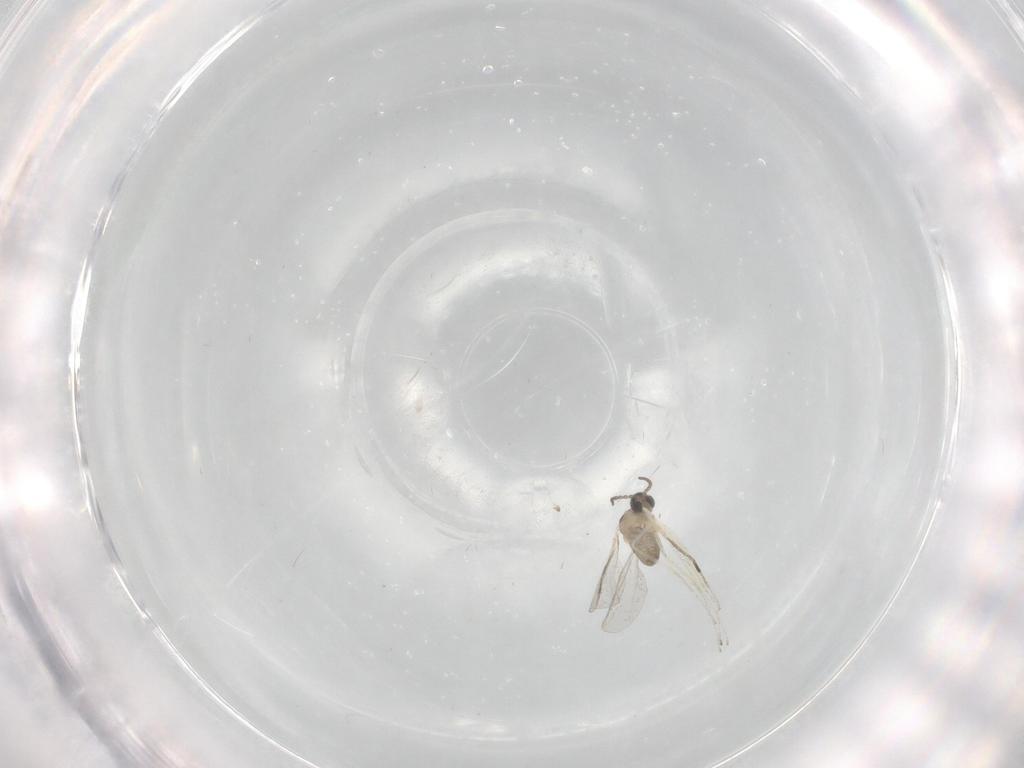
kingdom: Animalia
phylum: Arthropoda
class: Insecta
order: Diptera
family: Cecidomyiidae
